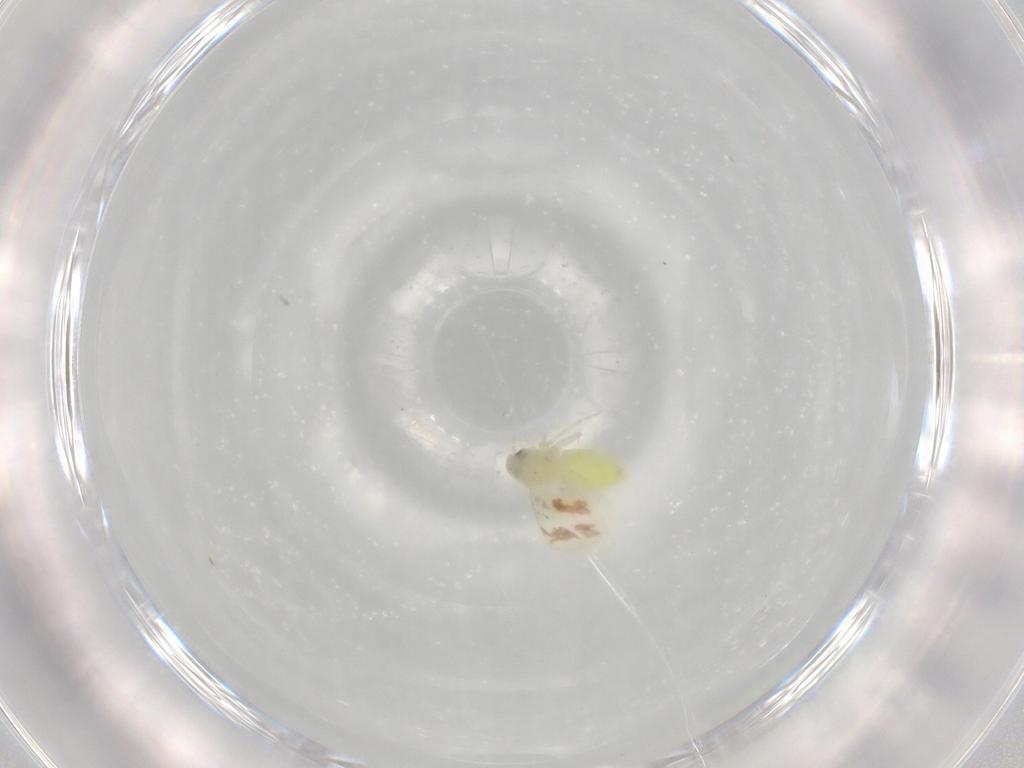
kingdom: Animalia
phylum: Arthropoda
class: Insecta
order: Hemiptera
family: Aleyrodidae
